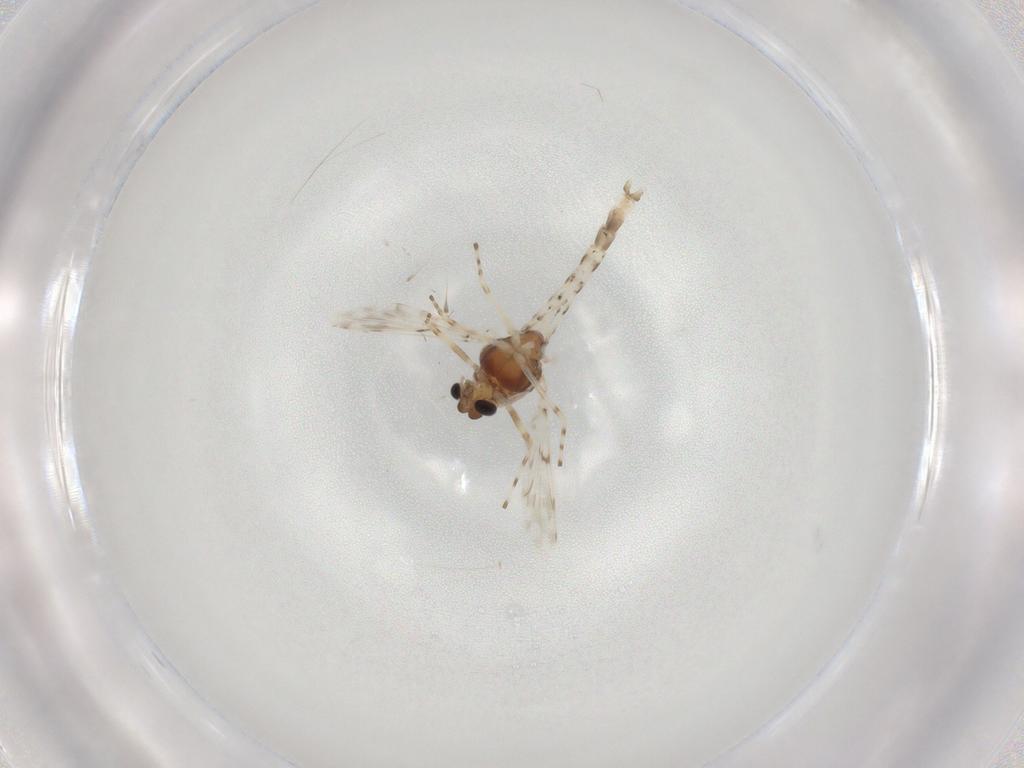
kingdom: Animalia
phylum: Arthropoda
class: Insecta
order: Diptera
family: Chironomidae
